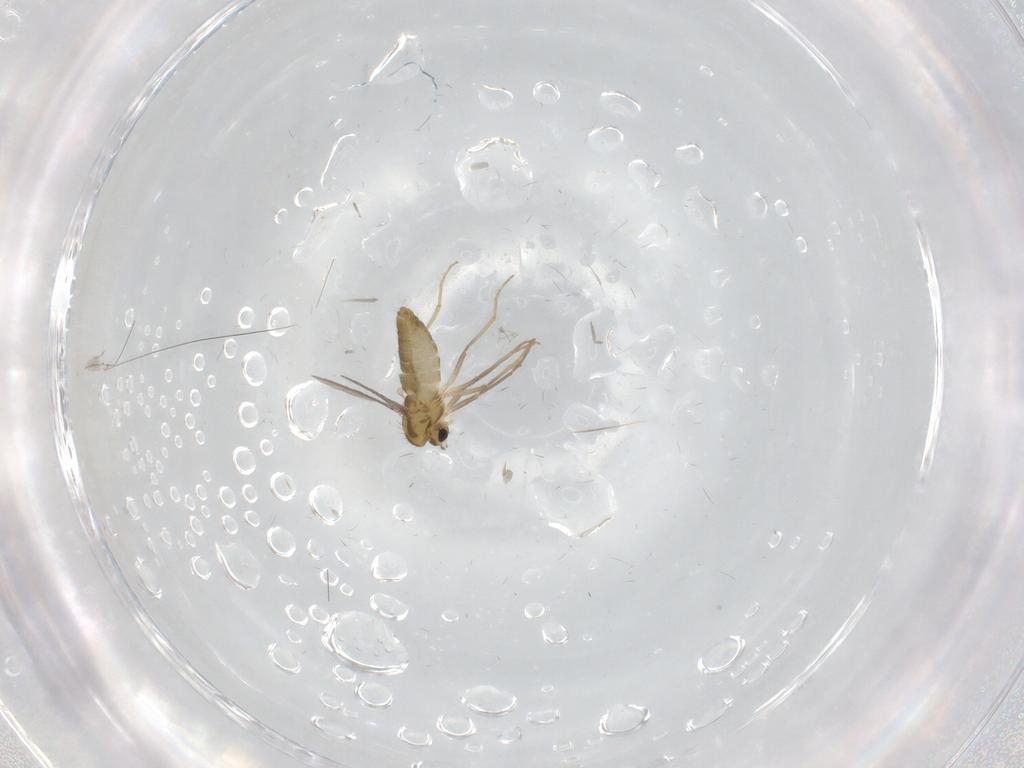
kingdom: Animalia
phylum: Arthropoda
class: Insecta
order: Diptera
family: Chironomidae
